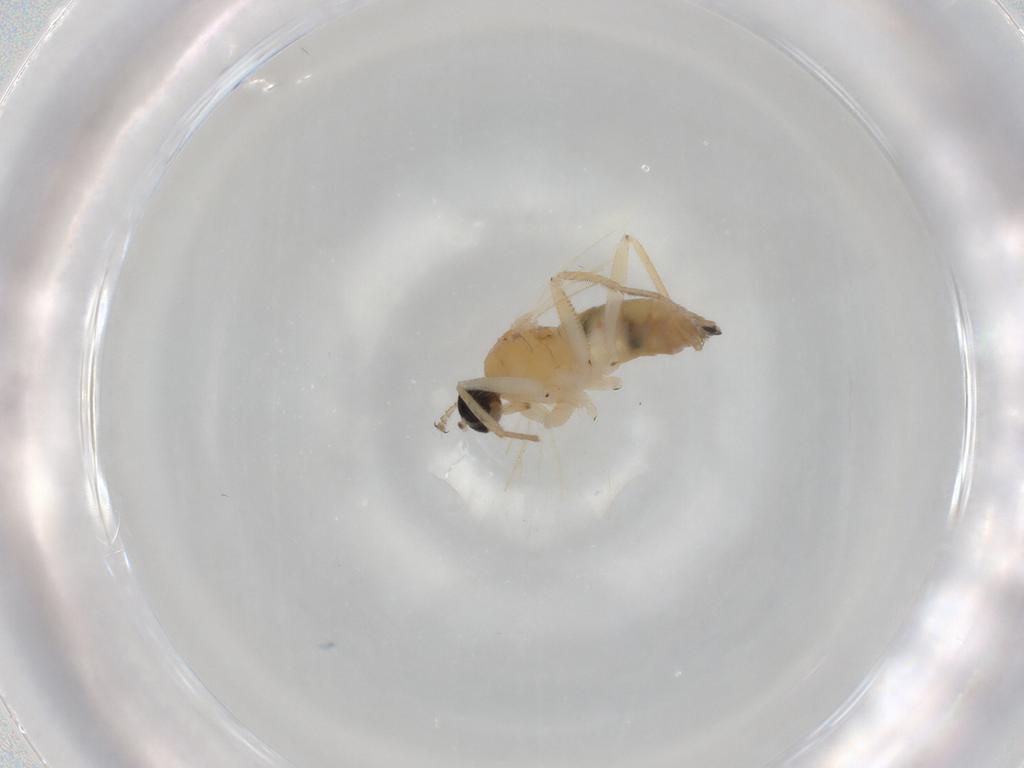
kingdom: Animalia
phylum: Arthropoda
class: Insecta
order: Diptera
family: Hybotidae
